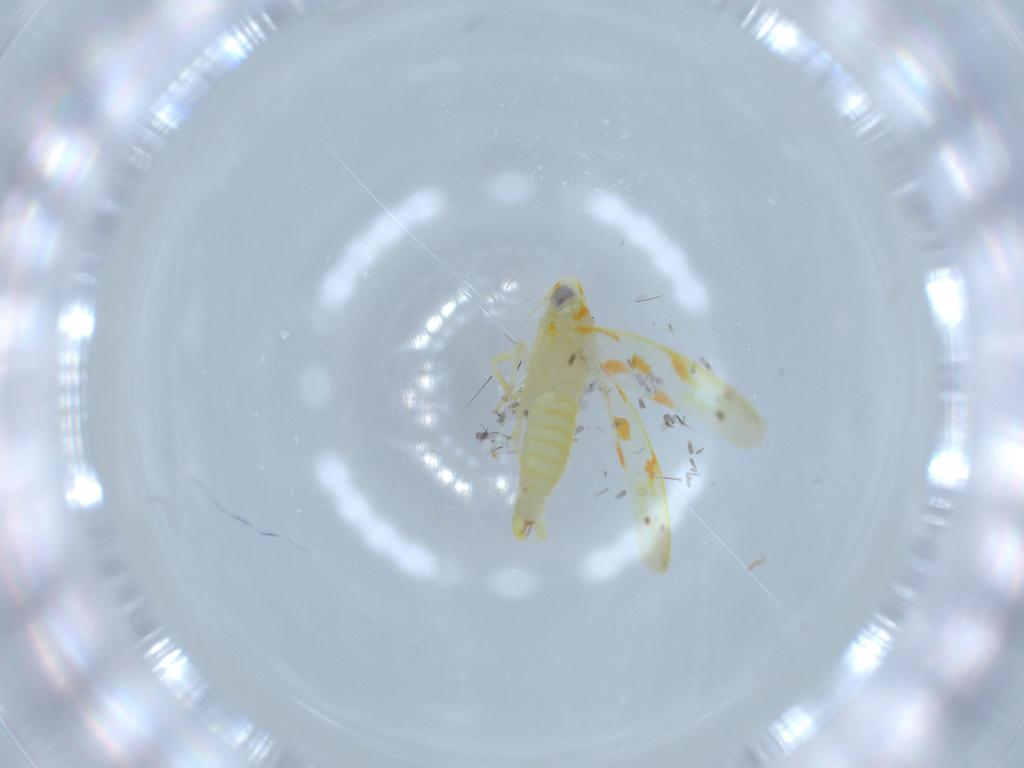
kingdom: Animalia
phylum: Arthropoda
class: Insecta
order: Hemiptera
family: Cicadellidae
